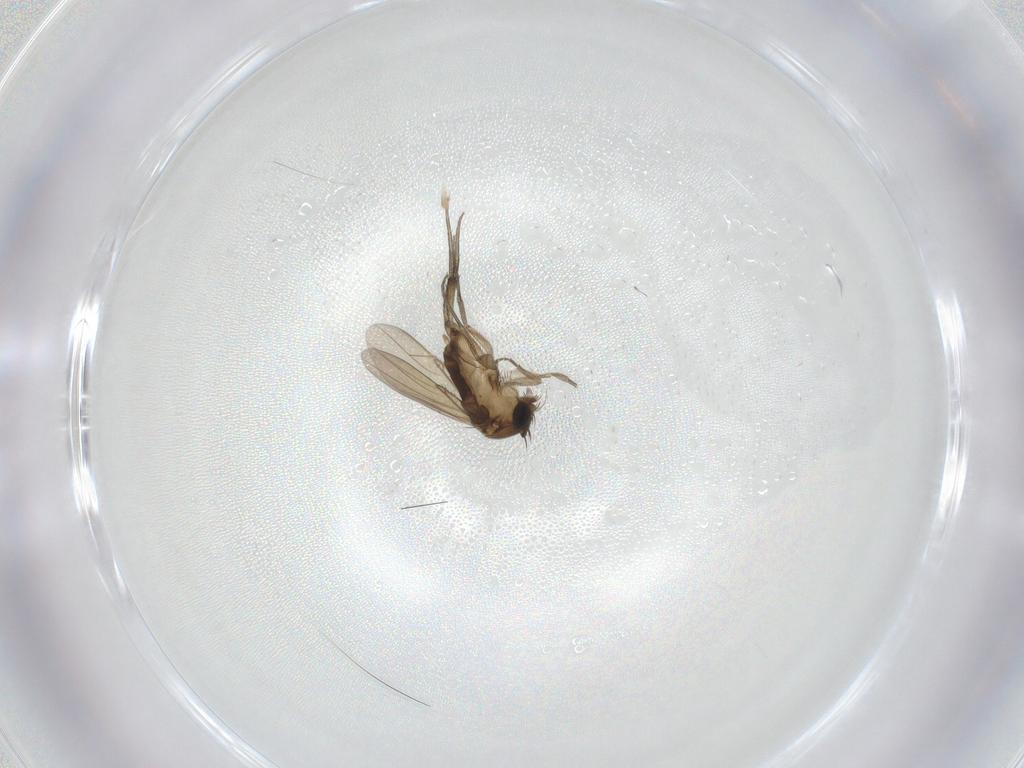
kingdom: Animalia
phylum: Arthropoda
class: Insecta
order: Diptera
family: Phoridae
